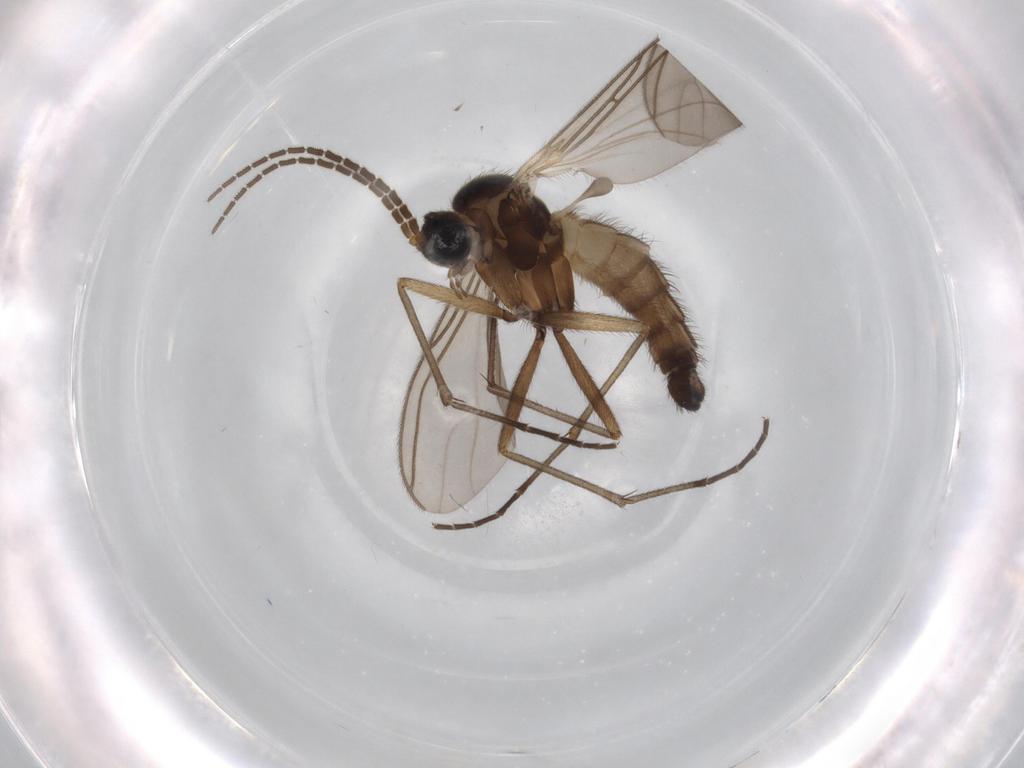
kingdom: Animalia
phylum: Arthropoda
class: Insecta
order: Diptera
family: Sciaridae
